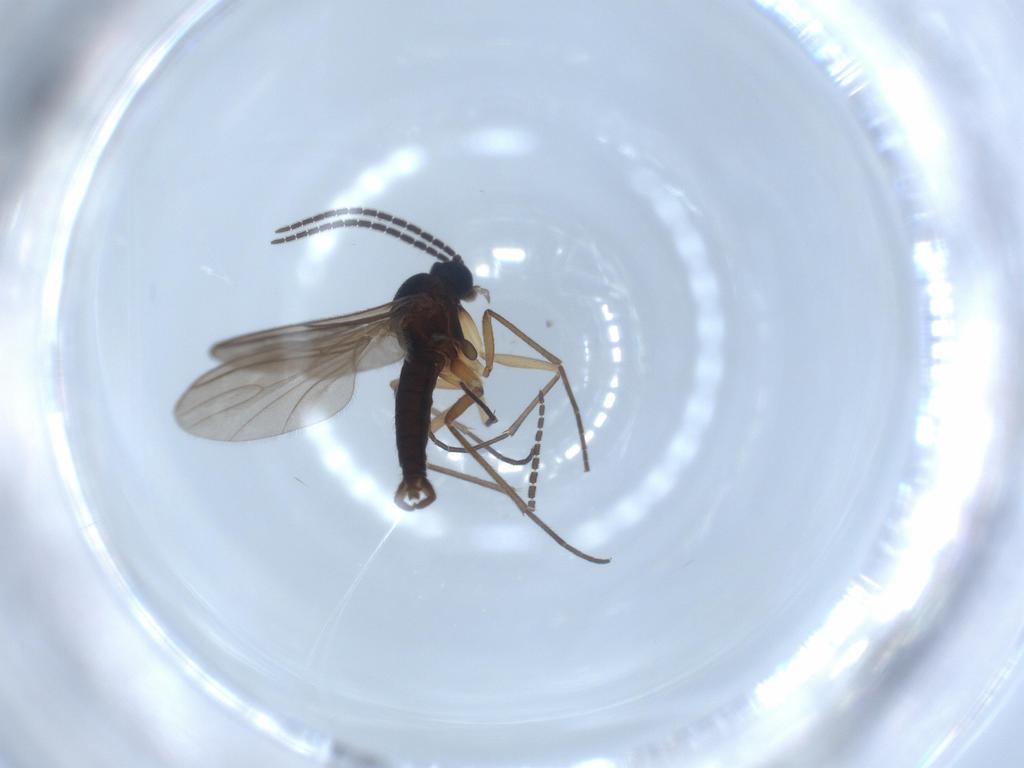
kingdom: Animalia
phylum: Arthropoda
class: Insecta
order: Diptera
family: Sciaridae
